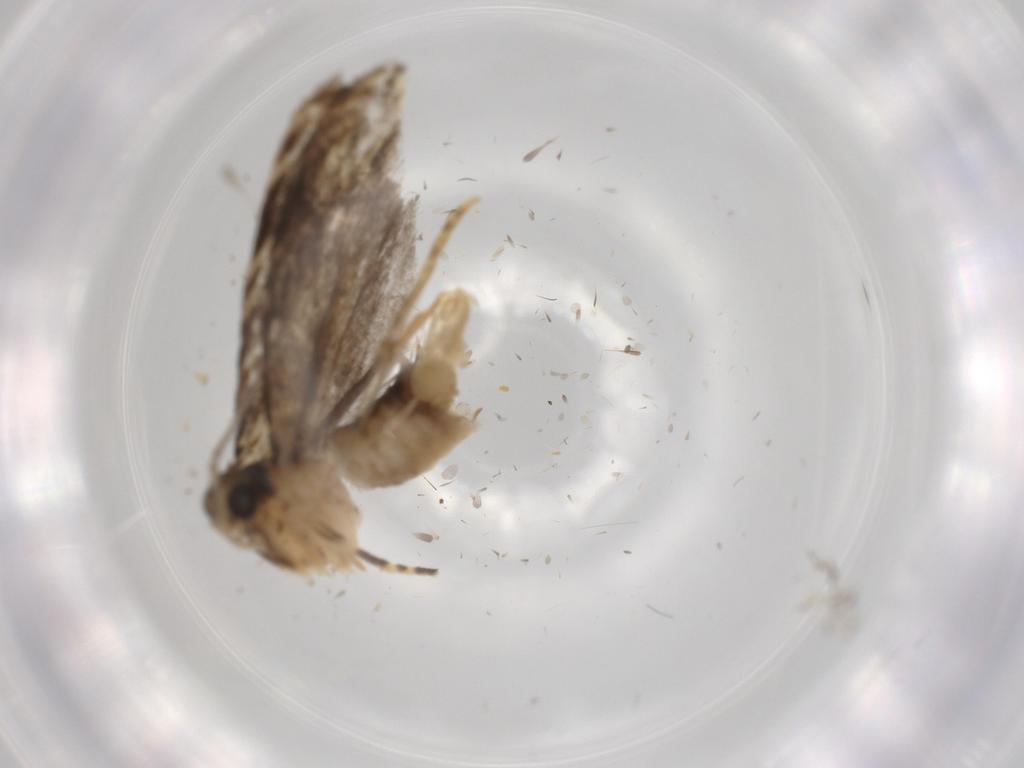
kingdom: Animalia
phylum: Arthropoda
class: Insecta
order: Lepidoptera
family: Tineidae
